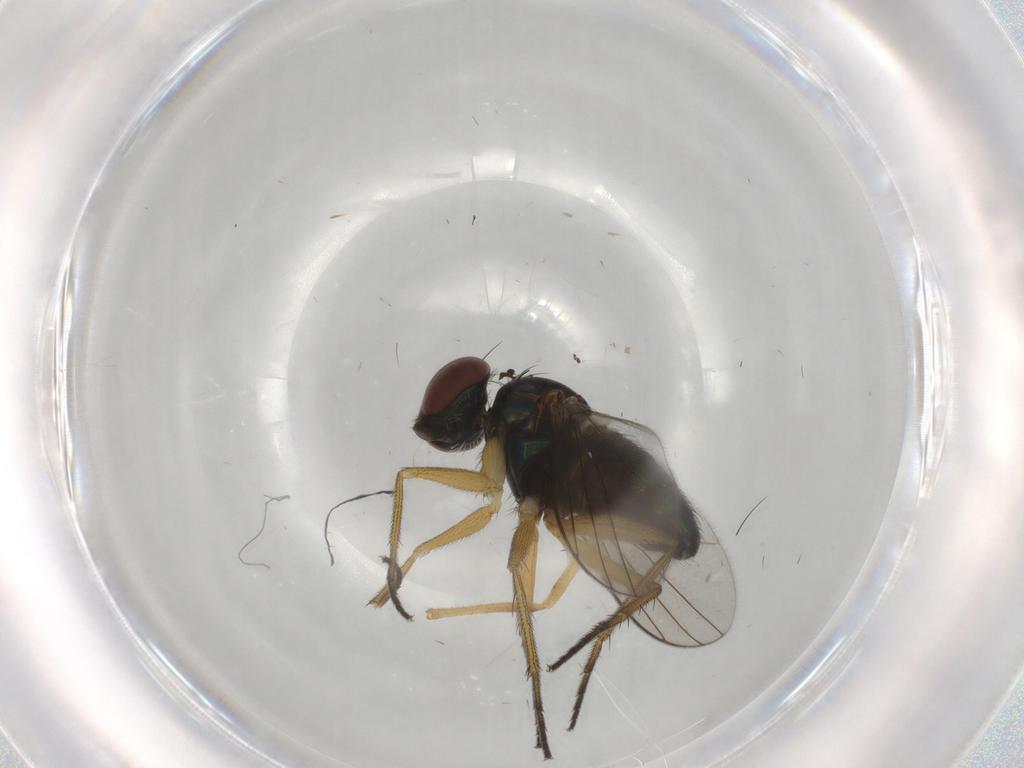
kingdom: Animalia
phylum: Arthropoda
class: Insecta
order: Diptera
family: Chironomidae
